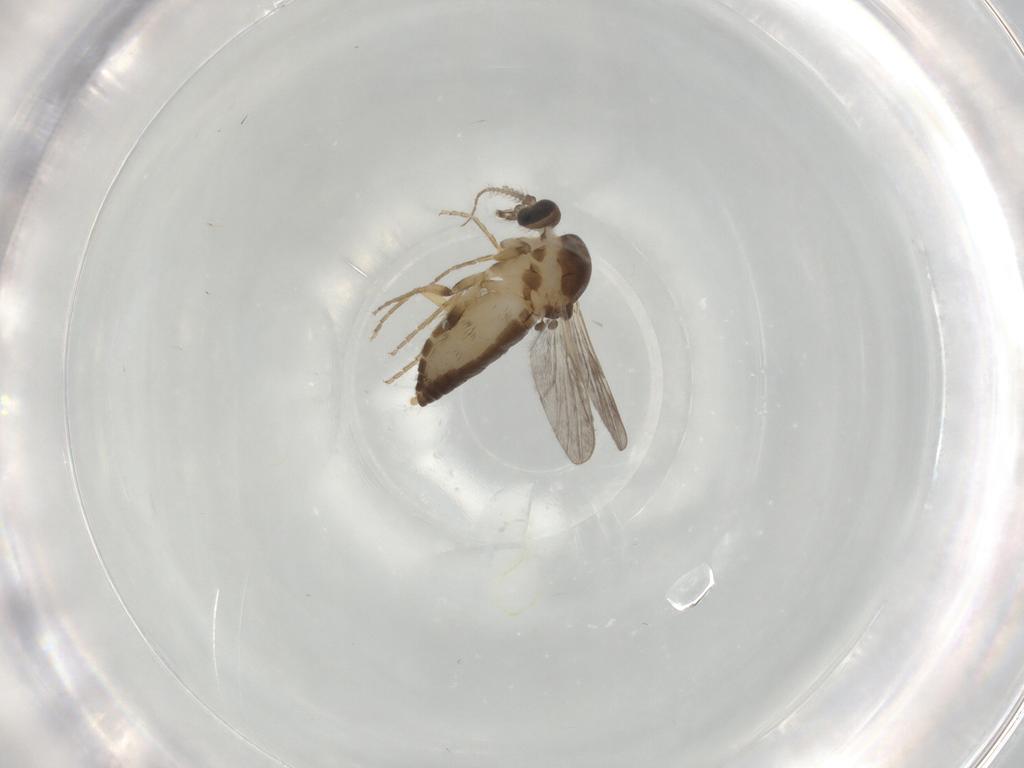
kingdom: Animalia
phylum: Arthropoda
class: Insecta
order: Diptera
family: Ceratopogonidae
